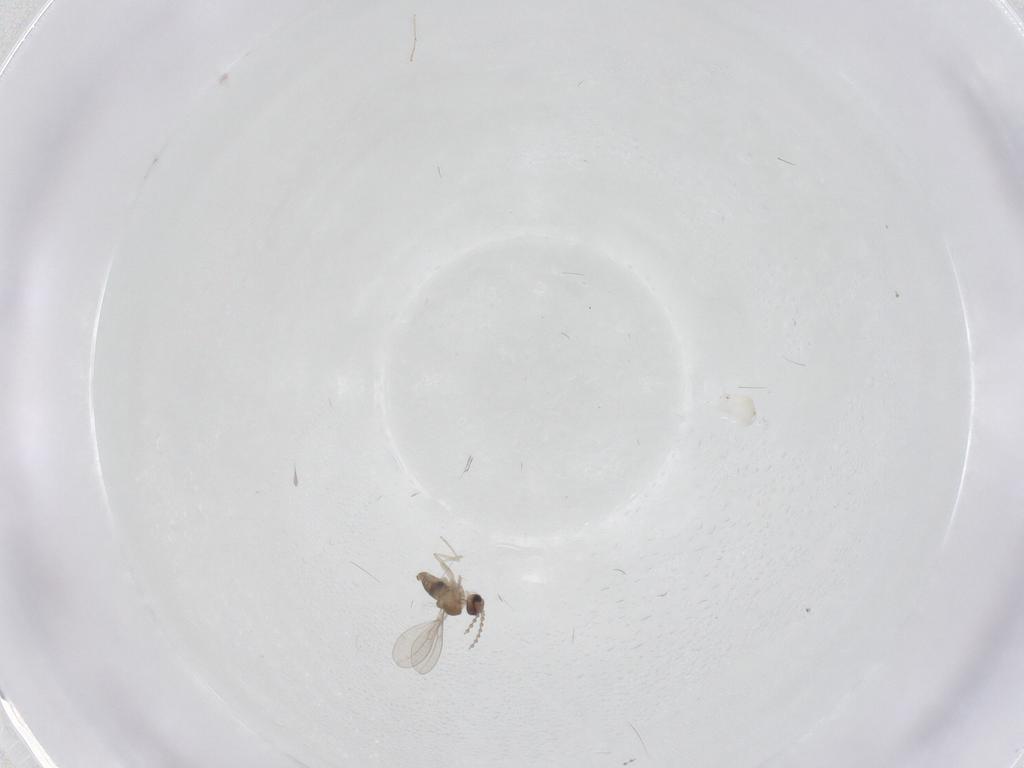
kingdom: Animalia
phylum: Arthropoda
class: Insecta
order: Diptera
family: Cecidomyiidae
